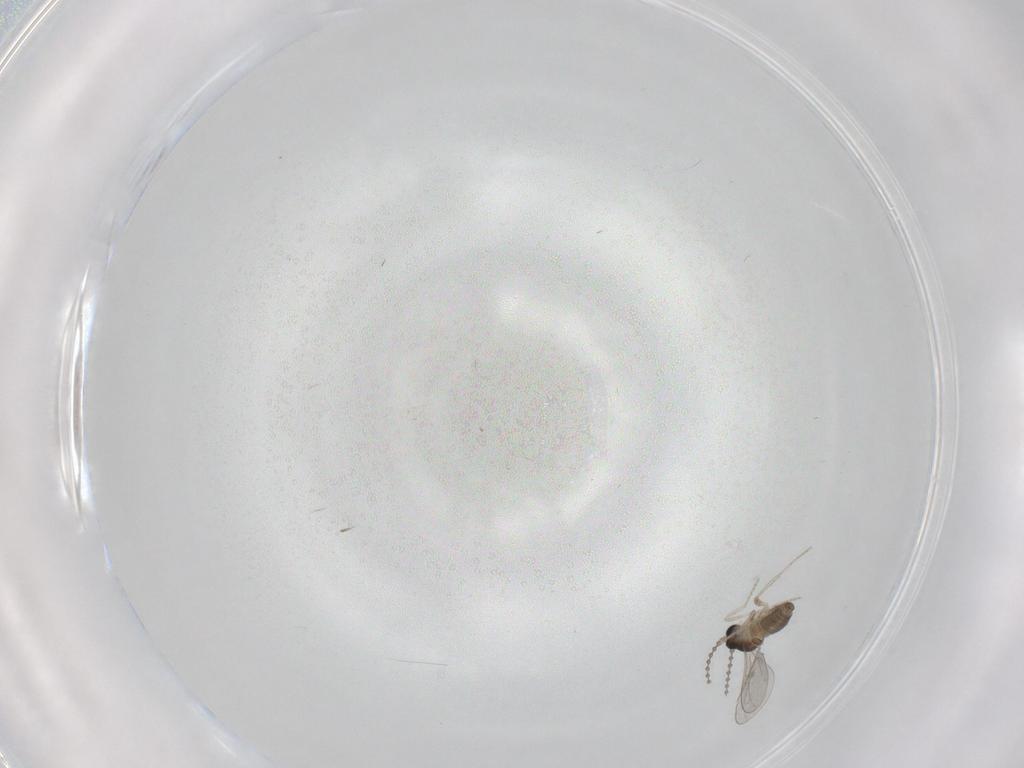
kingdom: Animalia
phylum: Arthropoda
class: Insecta
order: Diptera
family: Cecidomyiidae
